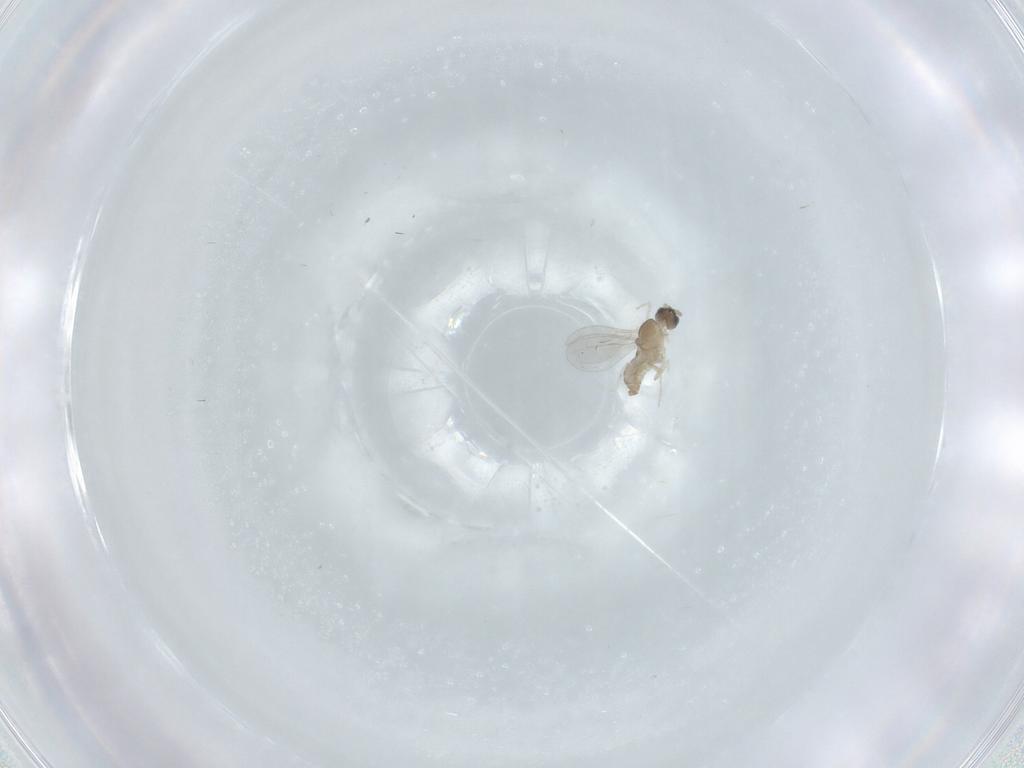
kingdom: Animalia
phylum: Arthropoda
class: Insecta
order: Diptera
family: Cecidomyiidae
